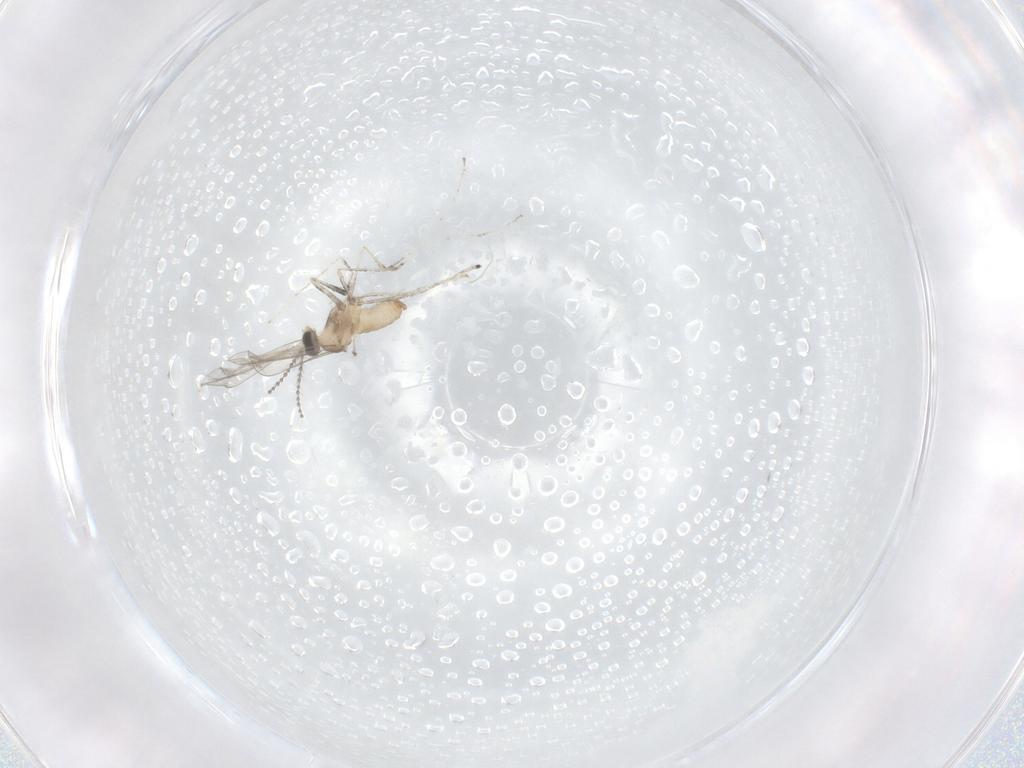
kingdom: Animalia
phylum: Arthropoda
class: Insecta
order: Diptera
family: Cecidomyiidae
